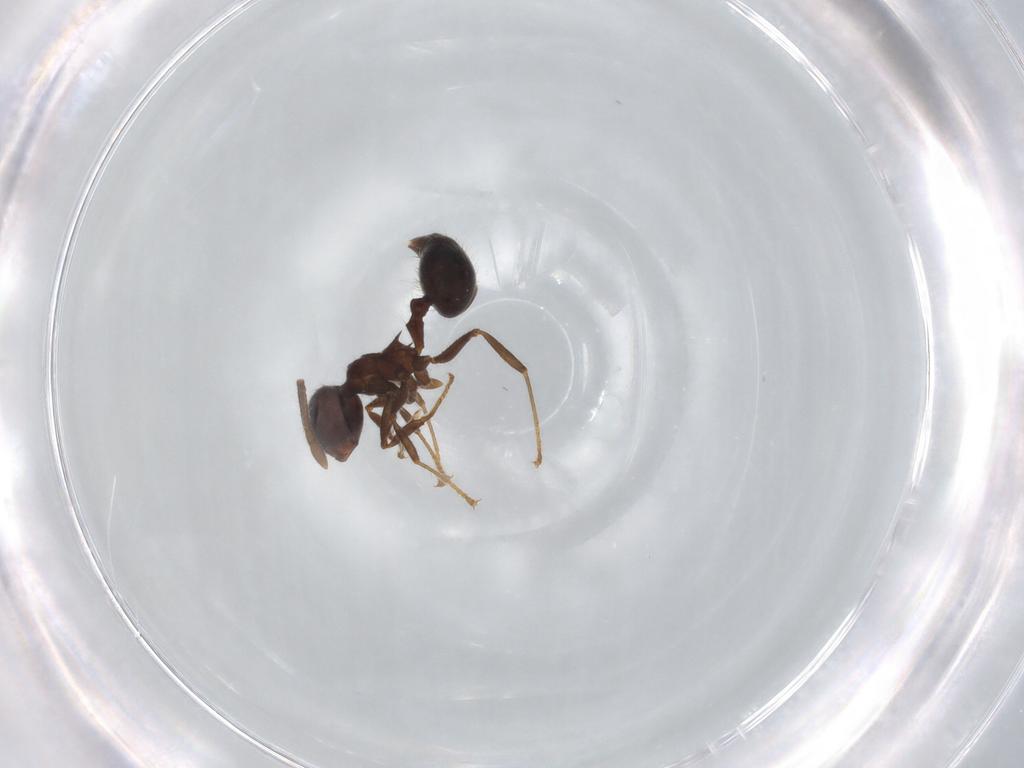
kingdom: Animalia
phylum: Arthropoda
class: Insecta
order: Hymenoptera
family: Formicidae
